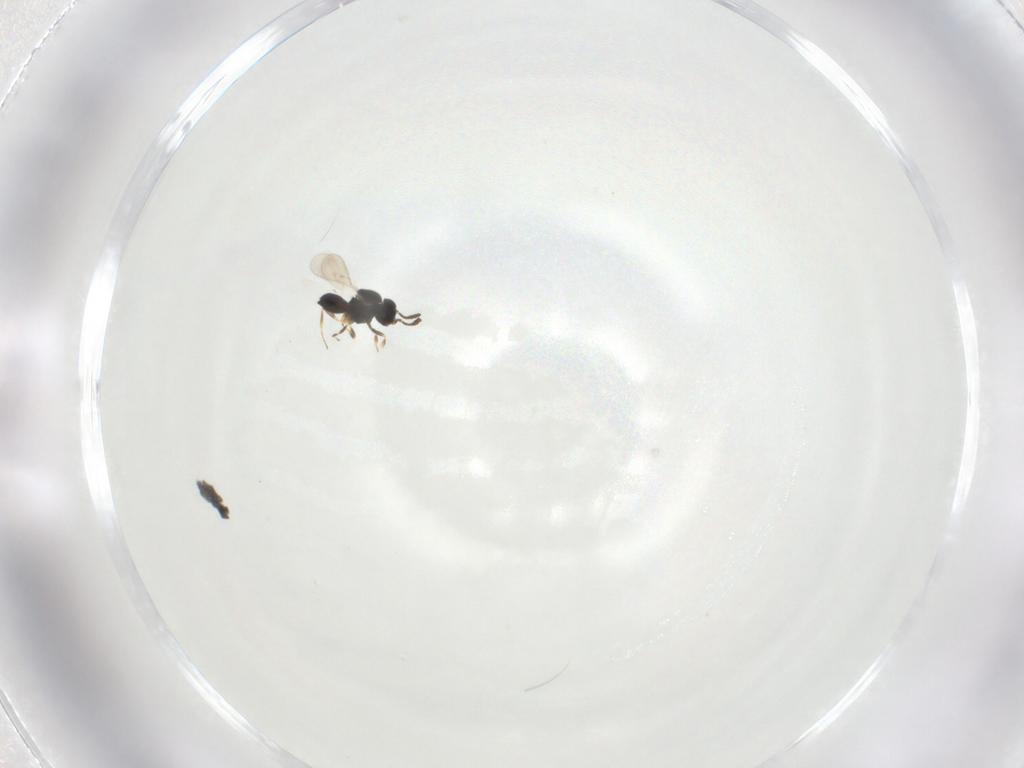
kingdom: Animalia
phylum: Arthropoda
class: Insecta
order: Hymenoptera
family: Scelionidae
